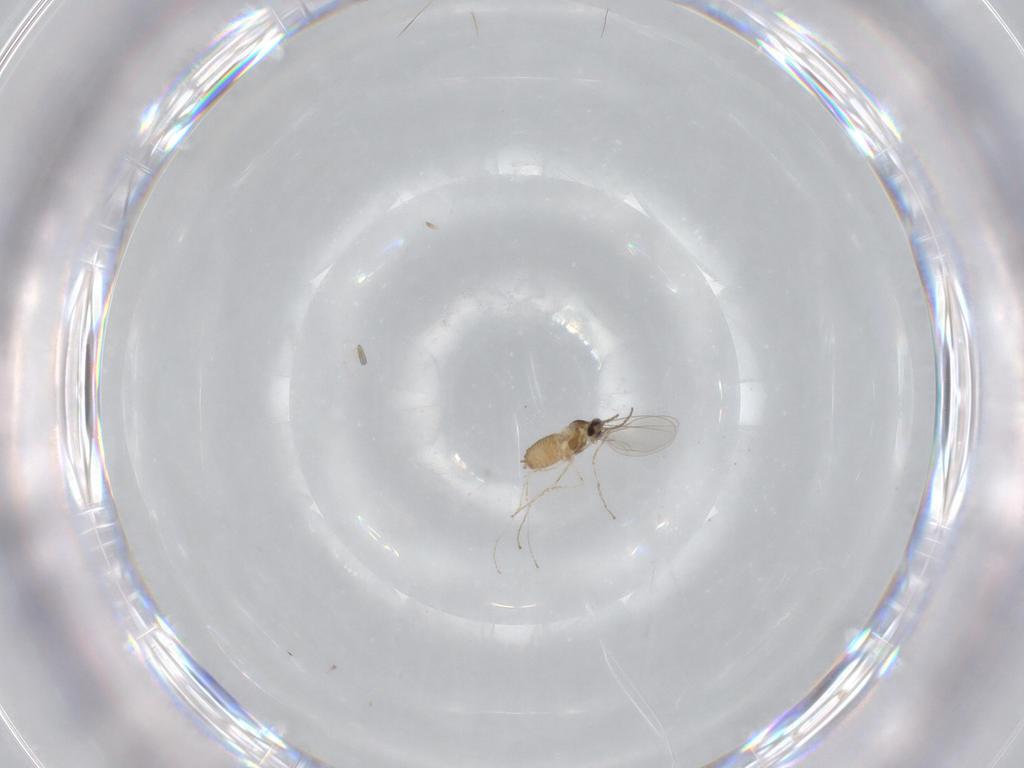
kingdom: Animalia
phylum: Arthropoda
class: Insecta
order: Diptera
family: Cecidomyiidae
